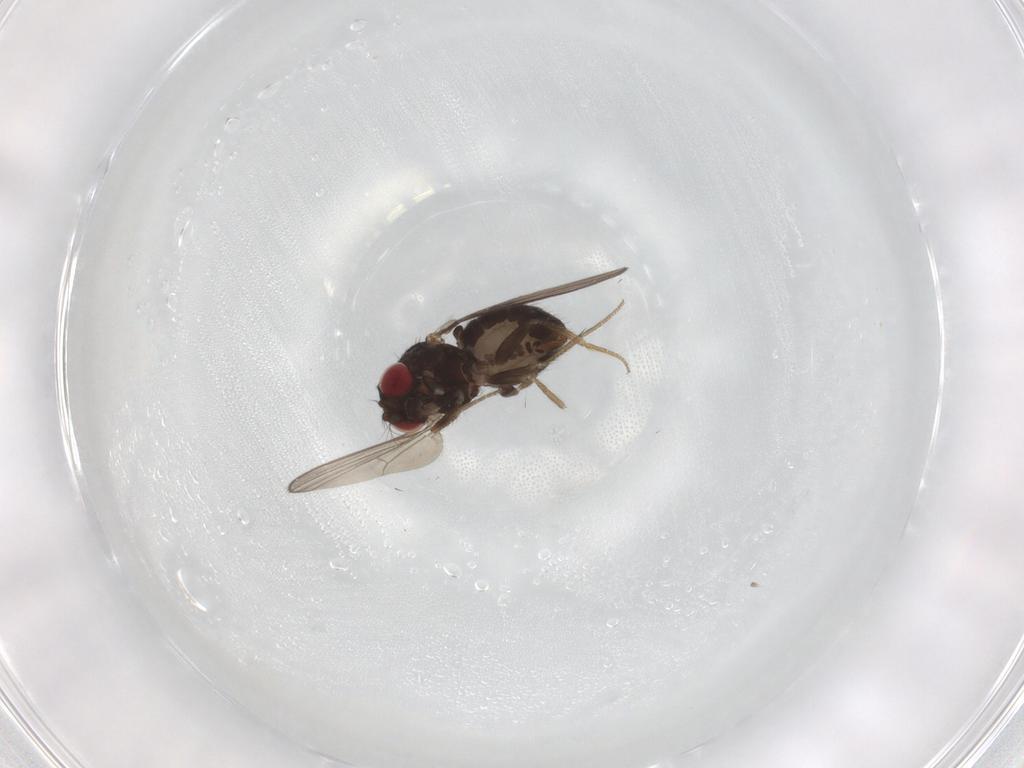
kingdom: Animalia
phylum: Arthropoda
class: Insecta
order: Diptera
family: Drosophilidae
